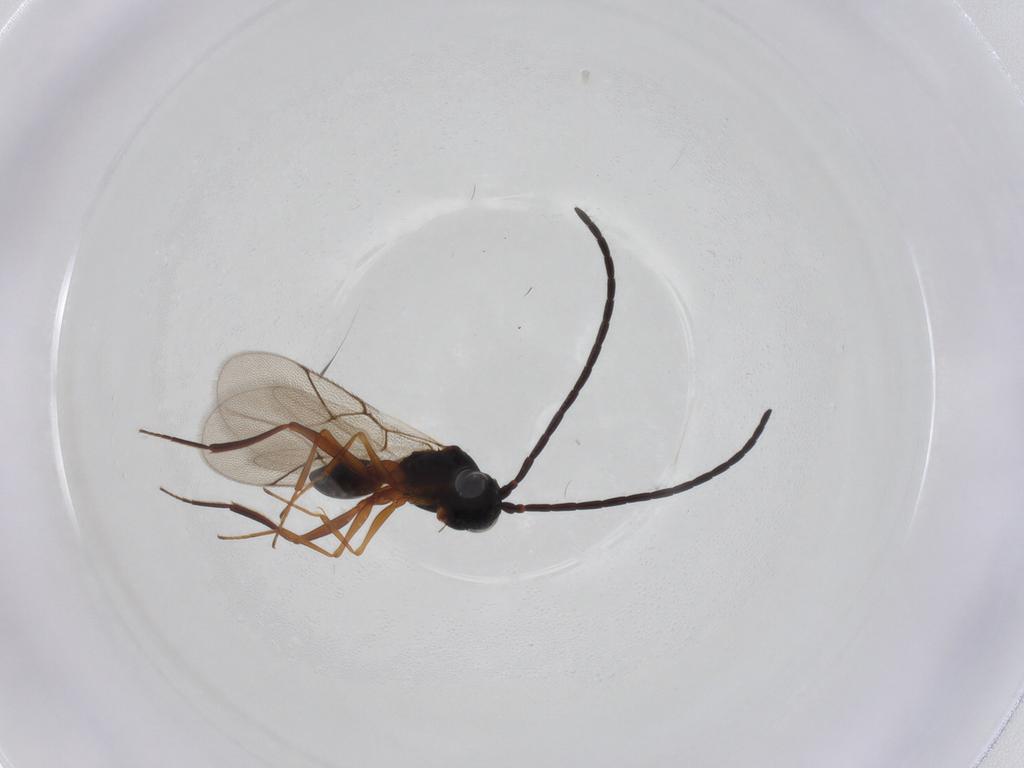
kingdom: Animalia
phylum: Arthropoda
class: Insecta
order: Hymenoptera
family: Figitidae
